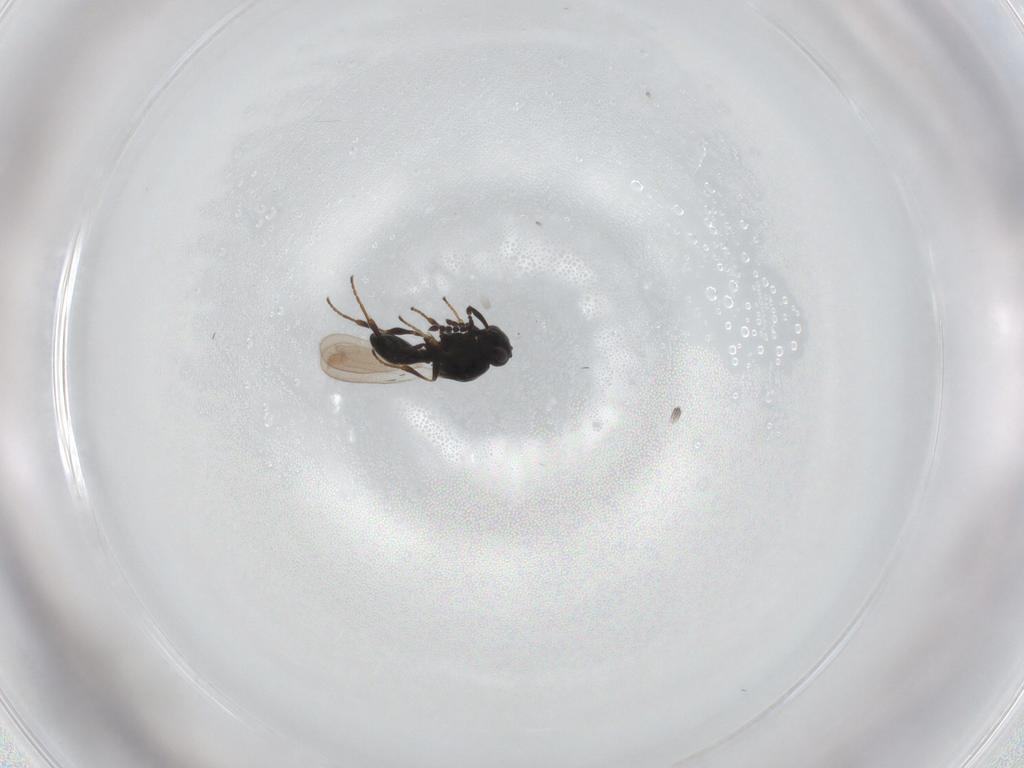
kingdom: Animalia
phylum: Arthropoda
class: Insecta
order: Hymenoptera
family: Platygastridae
